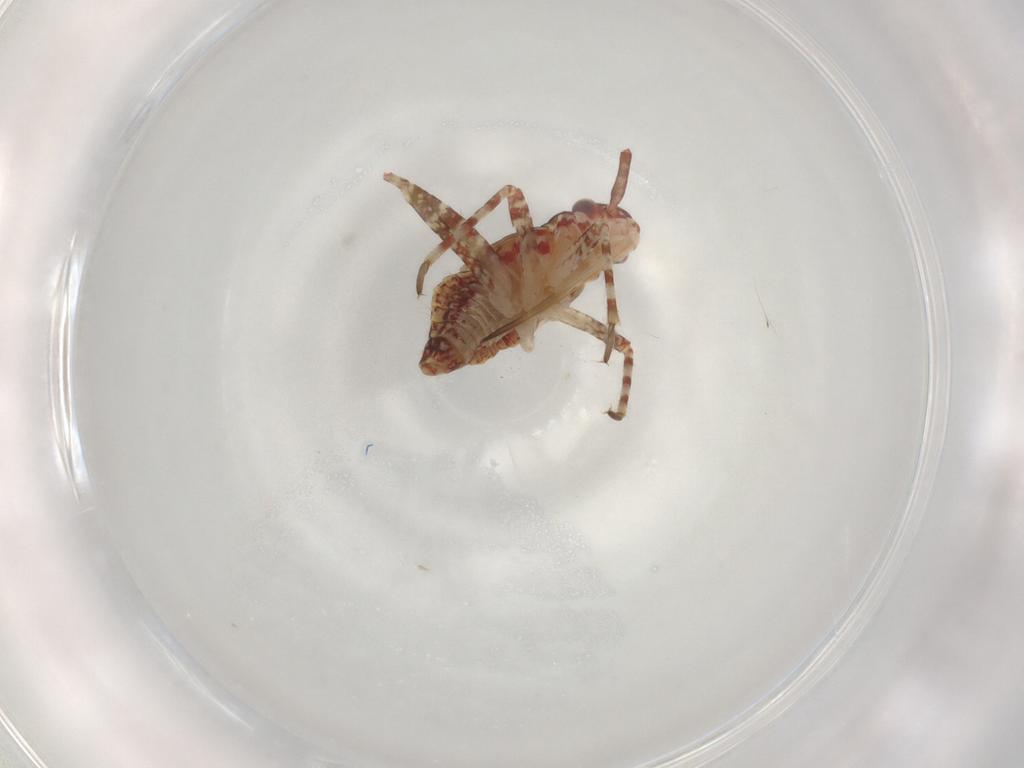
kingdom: Animalia
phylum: Arthropoda
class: Insecta
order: Hemiptera
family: Miridae
